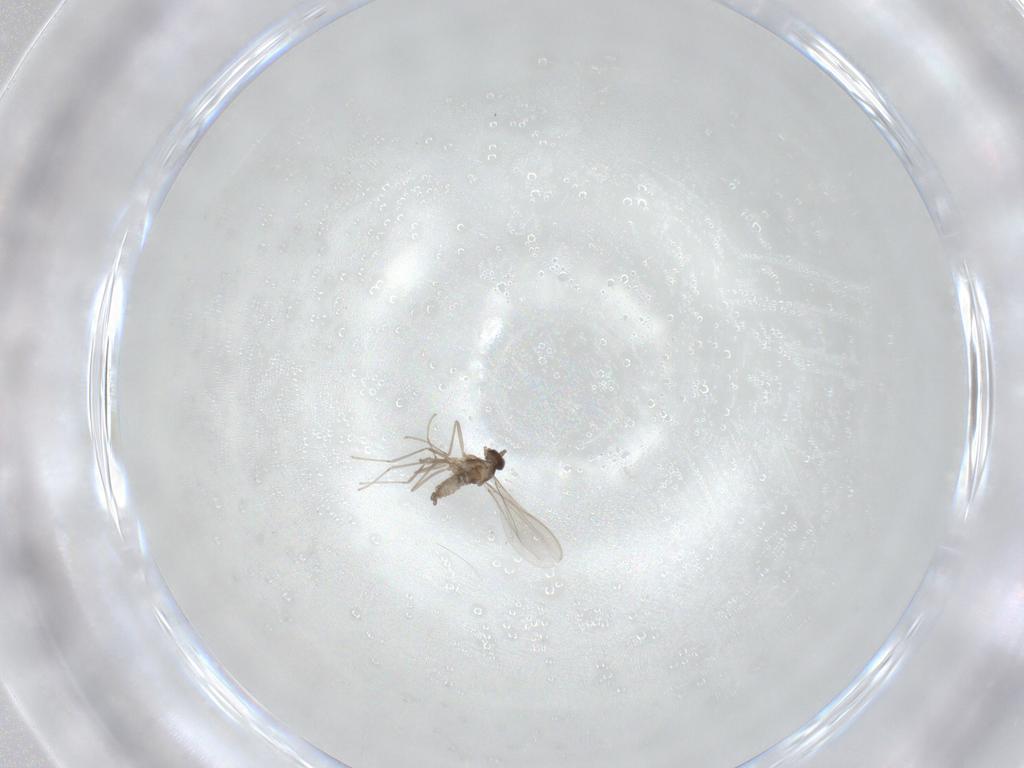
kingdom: Animalia
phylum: Arthropoda
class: Insecta
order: Diptera
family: Cecidomyiidae
